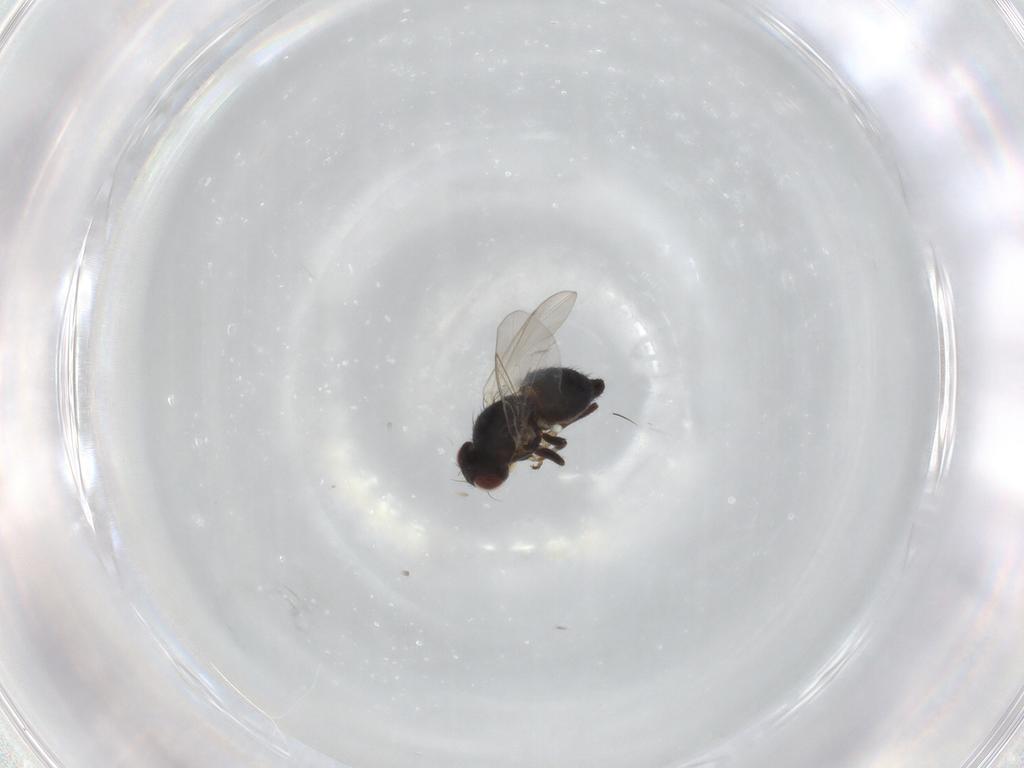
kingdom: Animalia
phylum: Arthropoda
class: Insecta
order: Diptera
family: Agromyzidae
